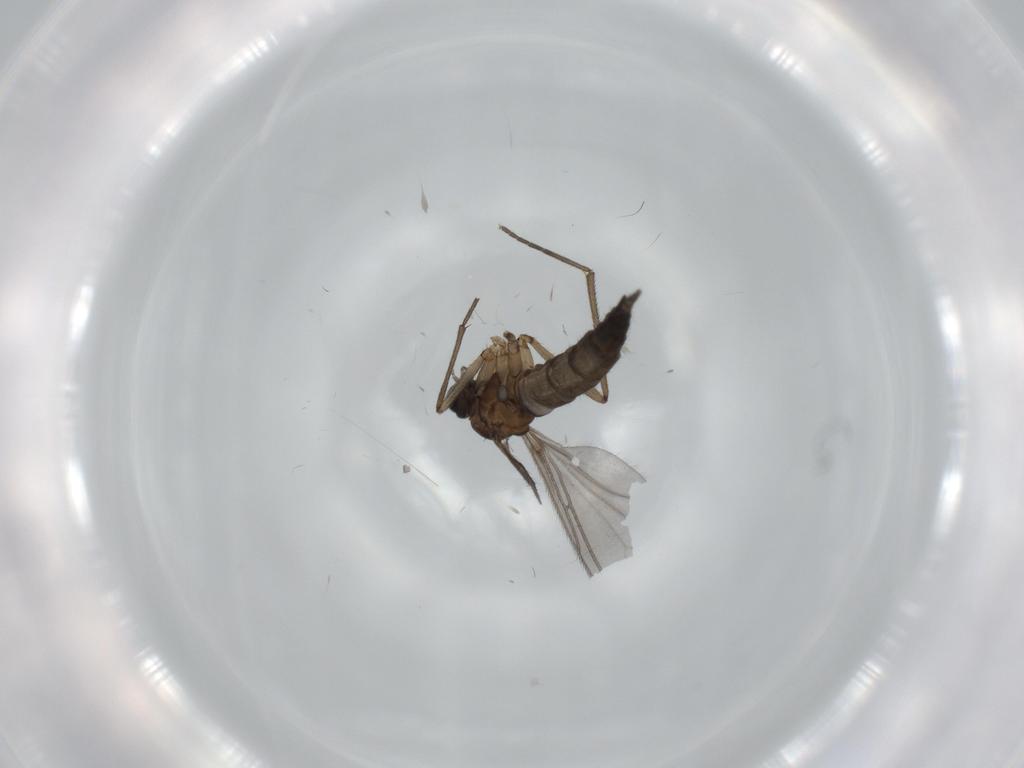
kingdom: Animalia
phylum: Arthropoda
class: Insecta
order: Diptera
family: Sciaridae
